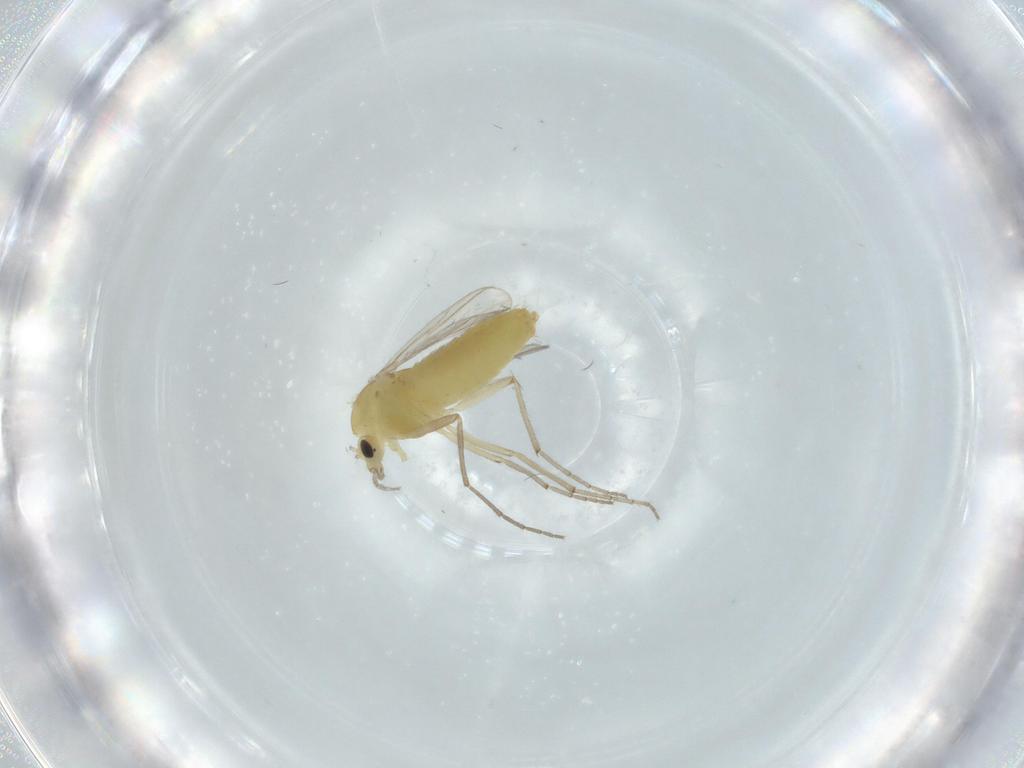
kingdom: Animalia
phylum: Arthropoda
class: Insecta
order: Diptera
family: Chironomidae
